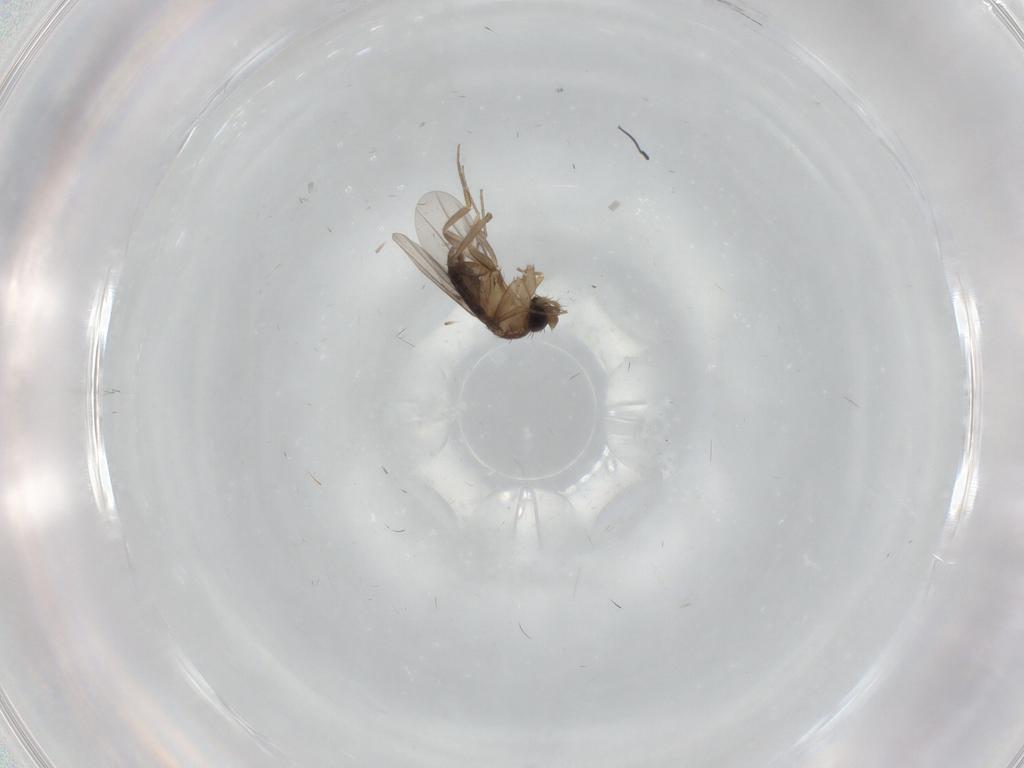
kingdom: Animalia
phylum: Arthropoda
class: Insecta
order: Diptera
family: Cecidomyiidae
